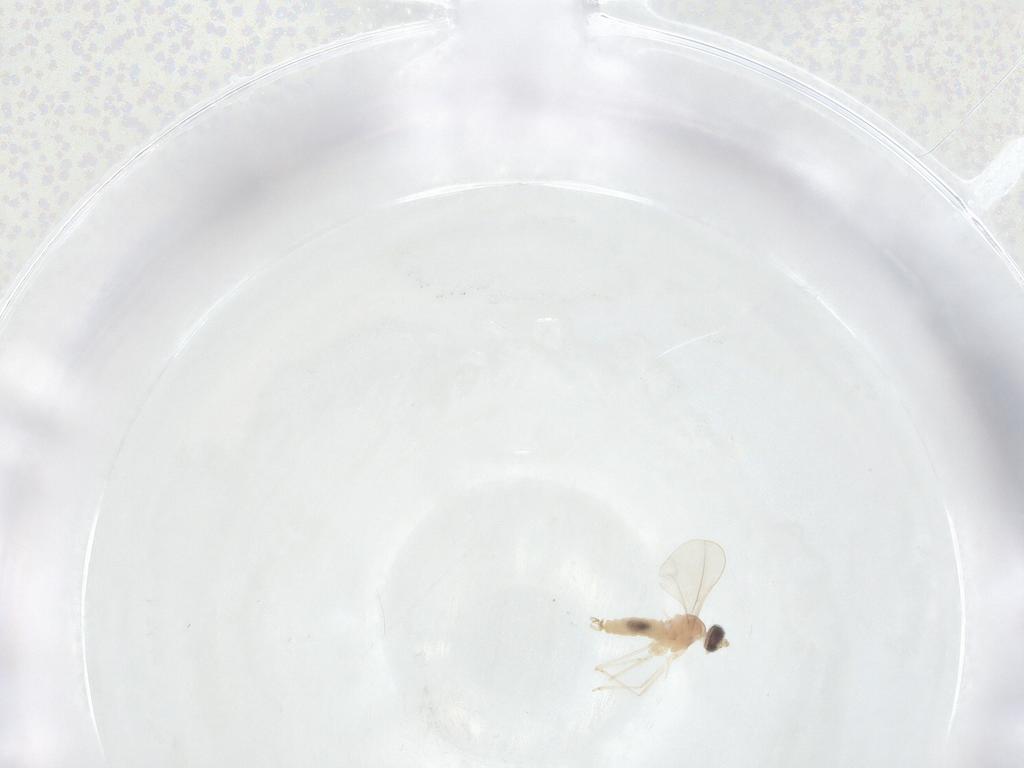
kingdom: Animalia
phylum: Arthropoda
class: Insecta
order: Diptera
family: Cecidomyiidae
